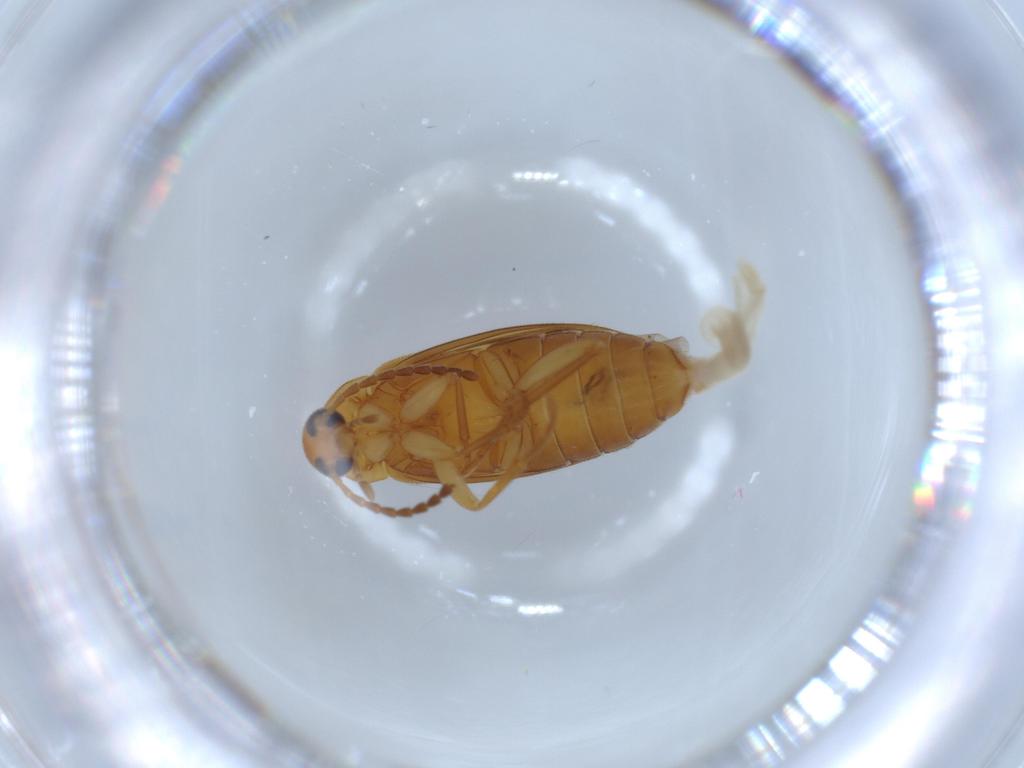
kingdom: Animalia
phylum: Arthropoda
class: Insecta
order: Coleoptera
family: Scraptiidae
